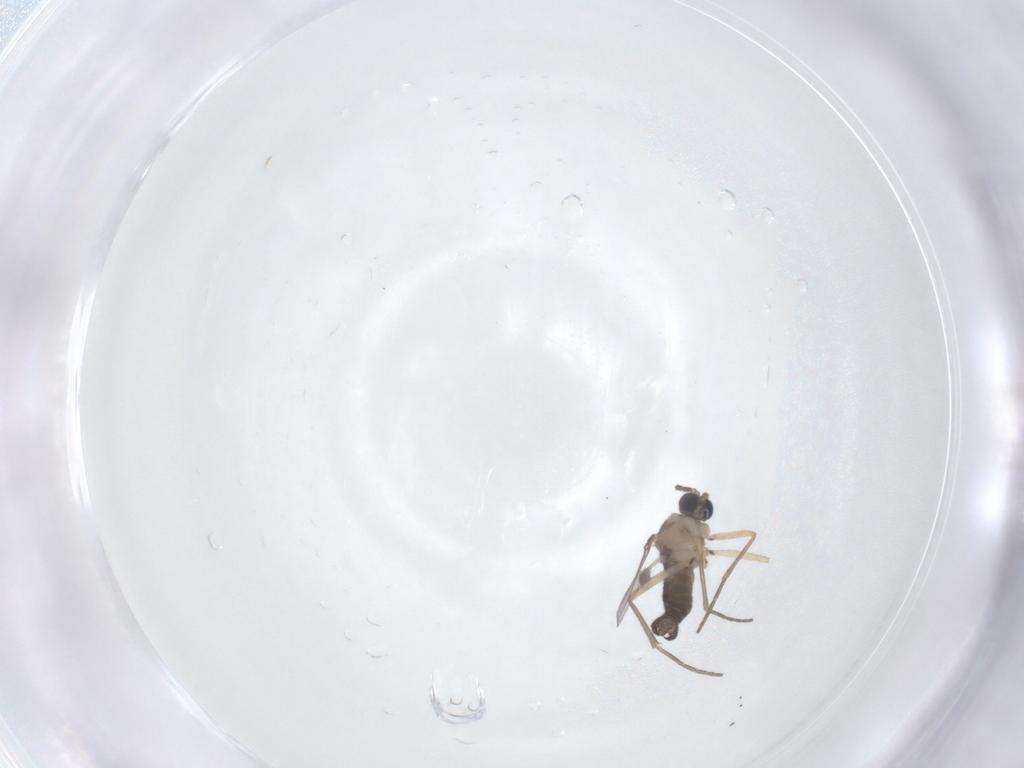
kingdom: Animalia
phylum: Arthropoda
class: Insecta
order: Diptera
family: Sciaridae
